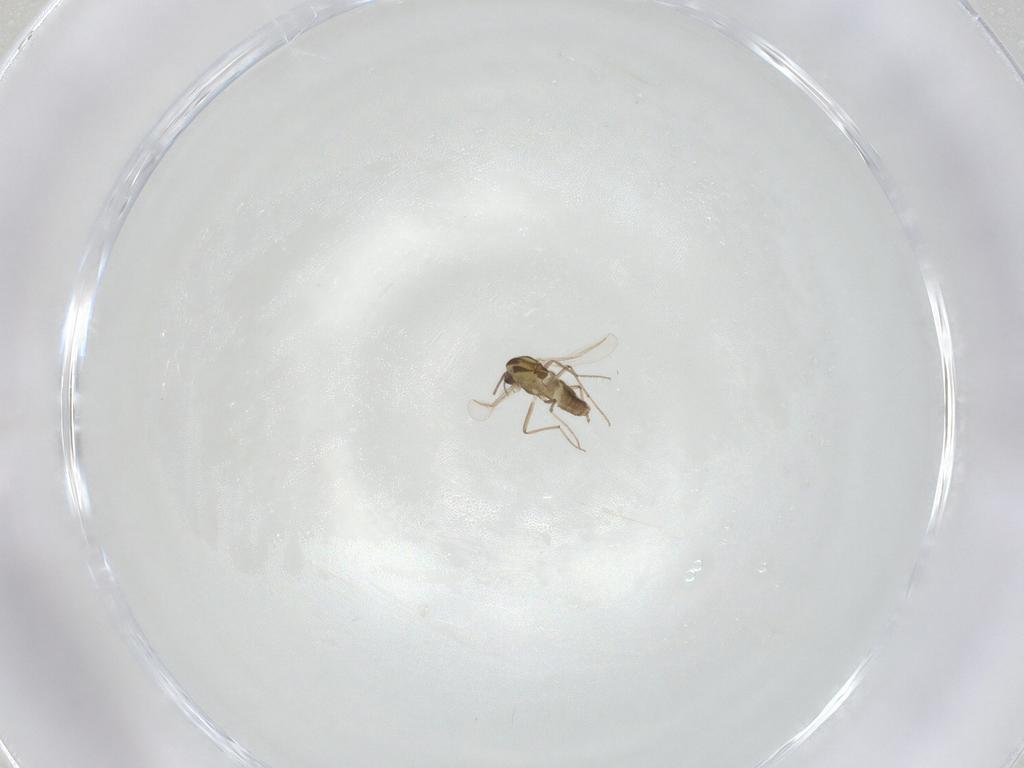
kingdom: Animalia
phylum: Arthropoda
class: Insecta
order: Diptera
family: Chironomidae
